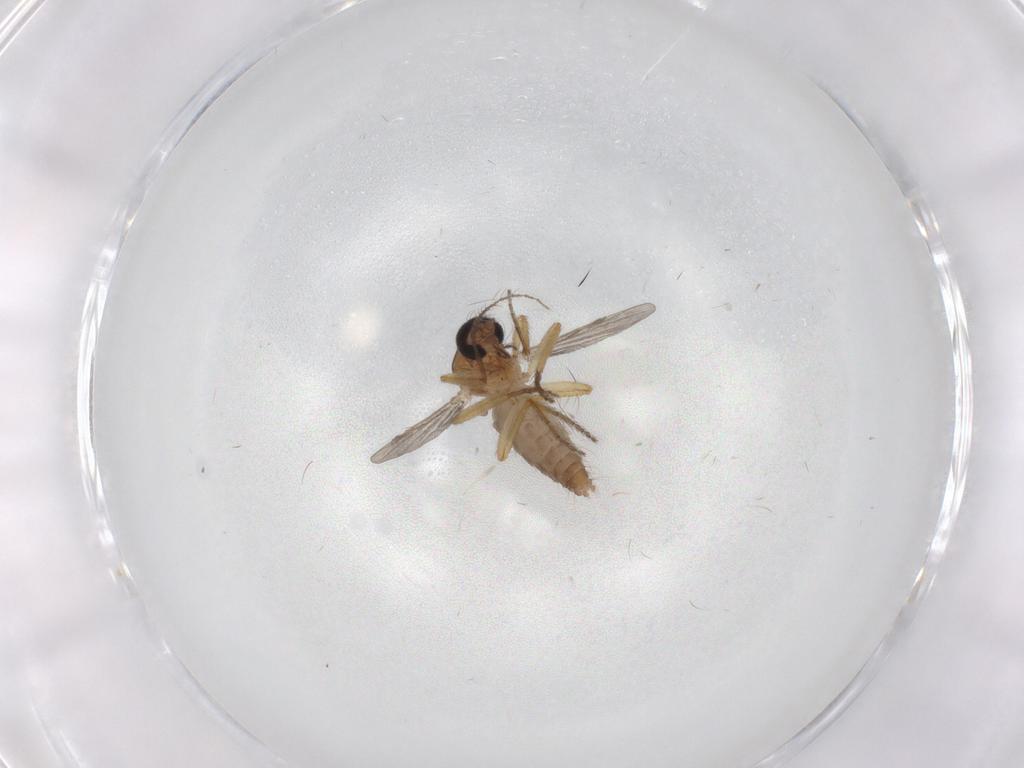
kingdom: Animalia
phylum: Arthropoda
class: Insecta
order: Diptera
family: Ceratopogonidae
